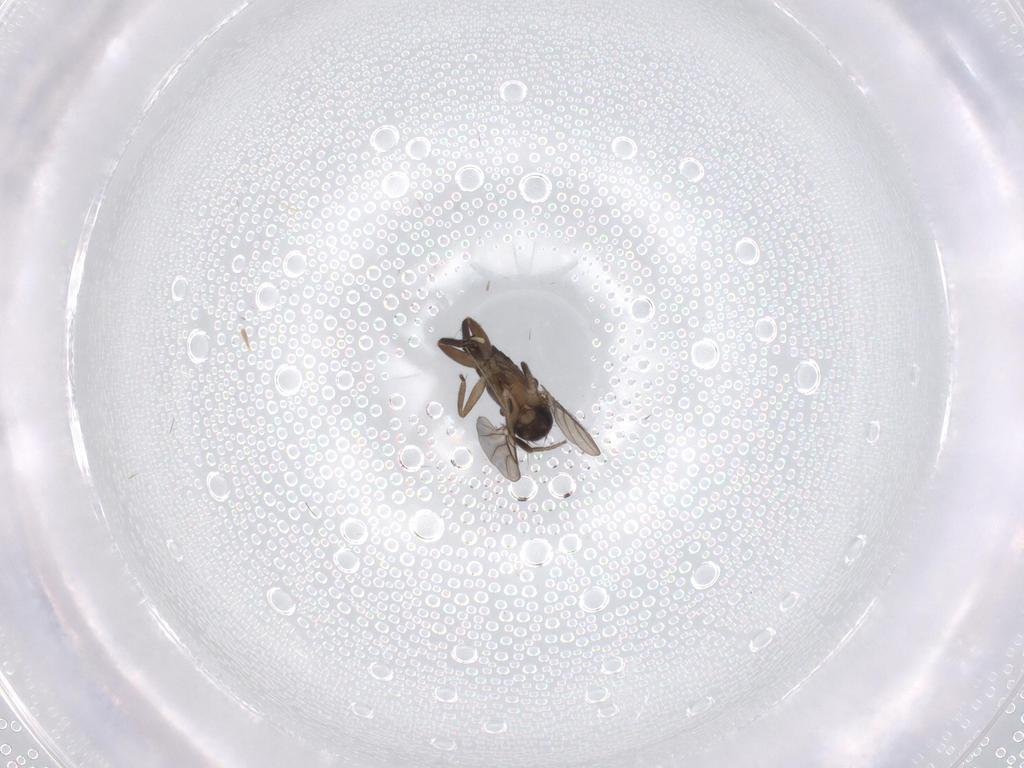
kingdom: Animalia
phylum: Arthropoda
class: Insecta
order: Diptera
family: Phoridae
